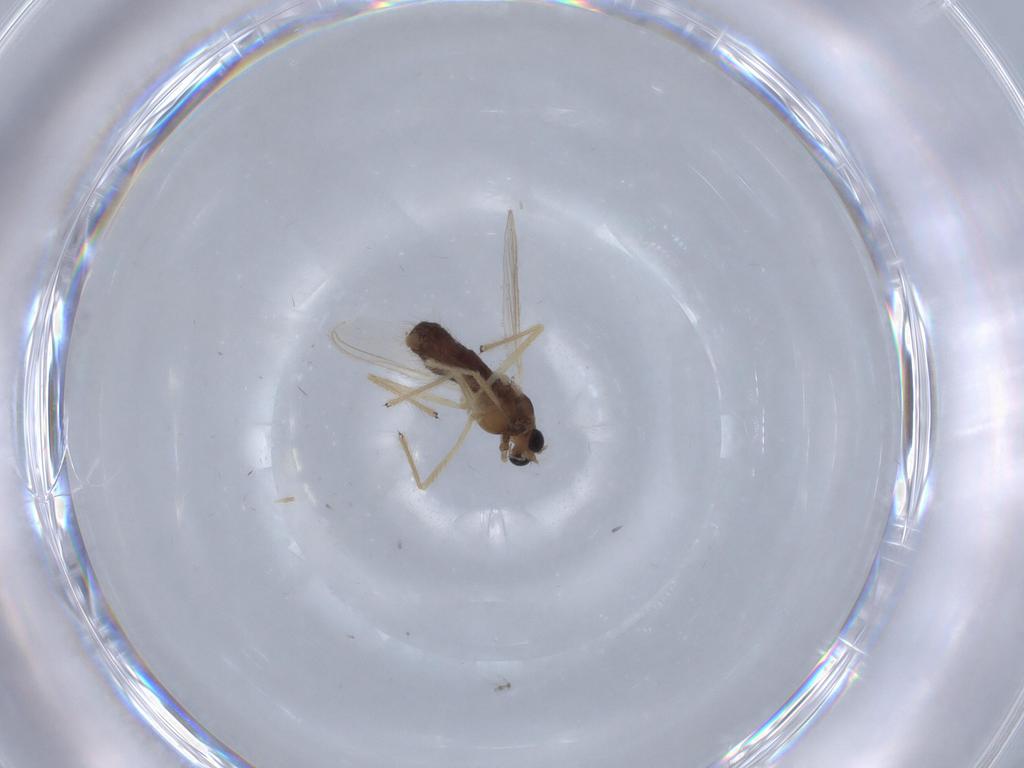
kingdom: Animalia
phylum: Arthropoda
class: Insecta
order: Diptera
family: Chironomidae
